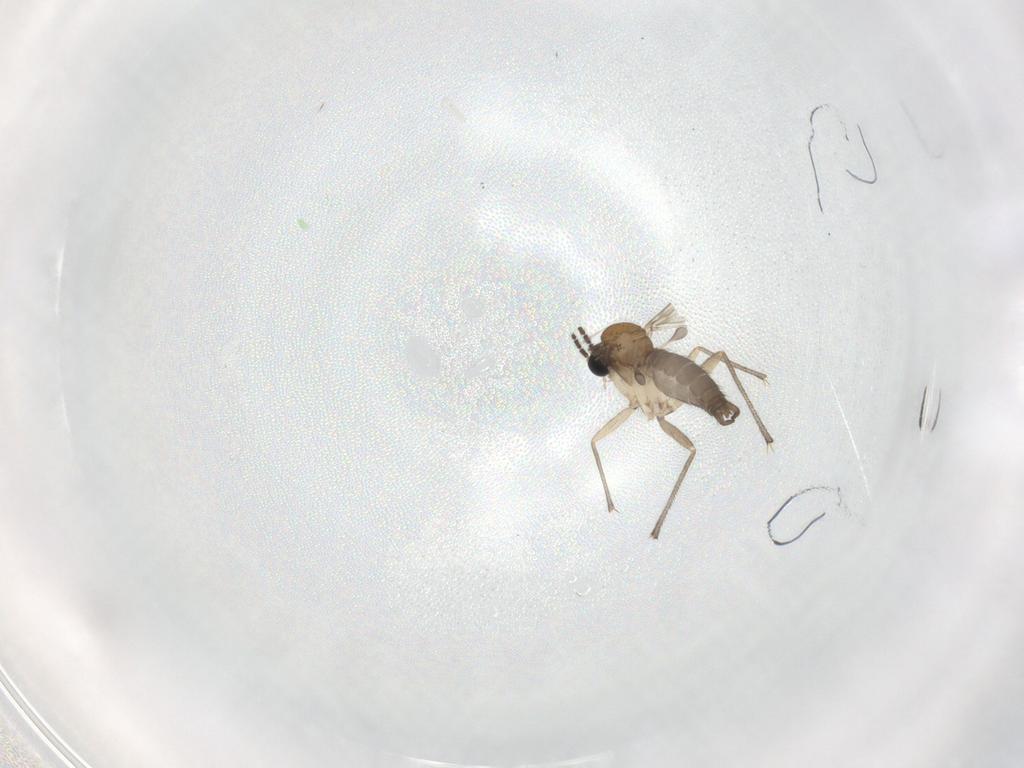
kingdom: Animalia
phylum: Arthropoda
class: Insecta
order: Diptera
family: Sciaridae
